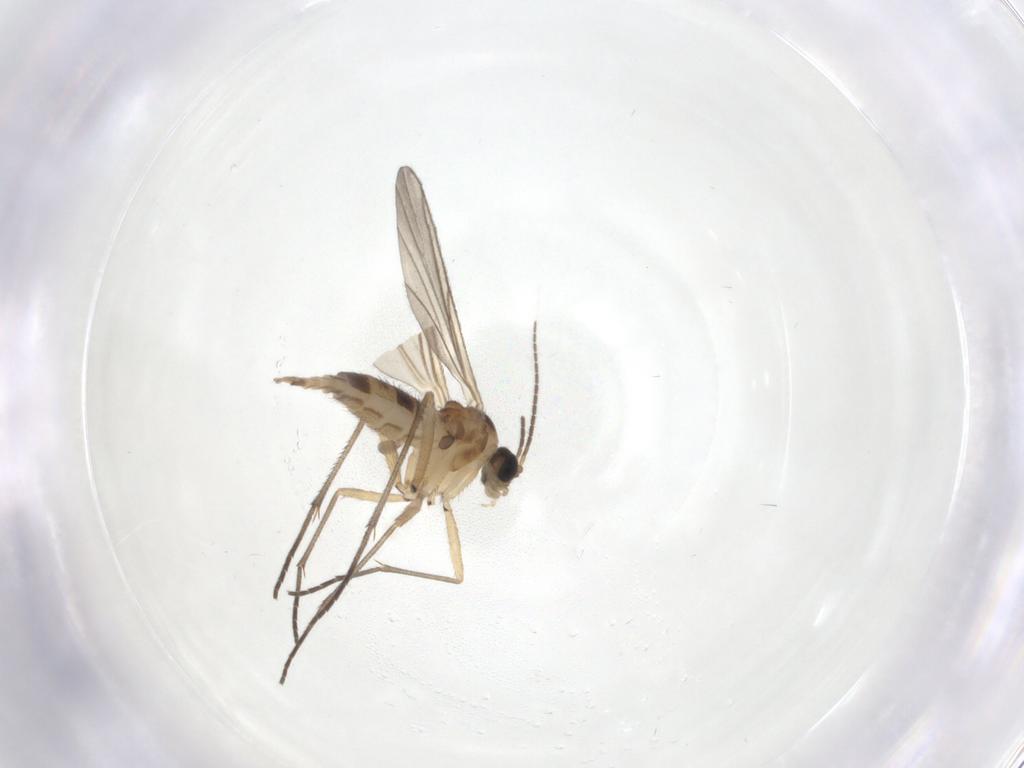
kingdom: Animalia
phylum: Arthropoda
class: Insecta
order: Diptera
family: Sciaridae
